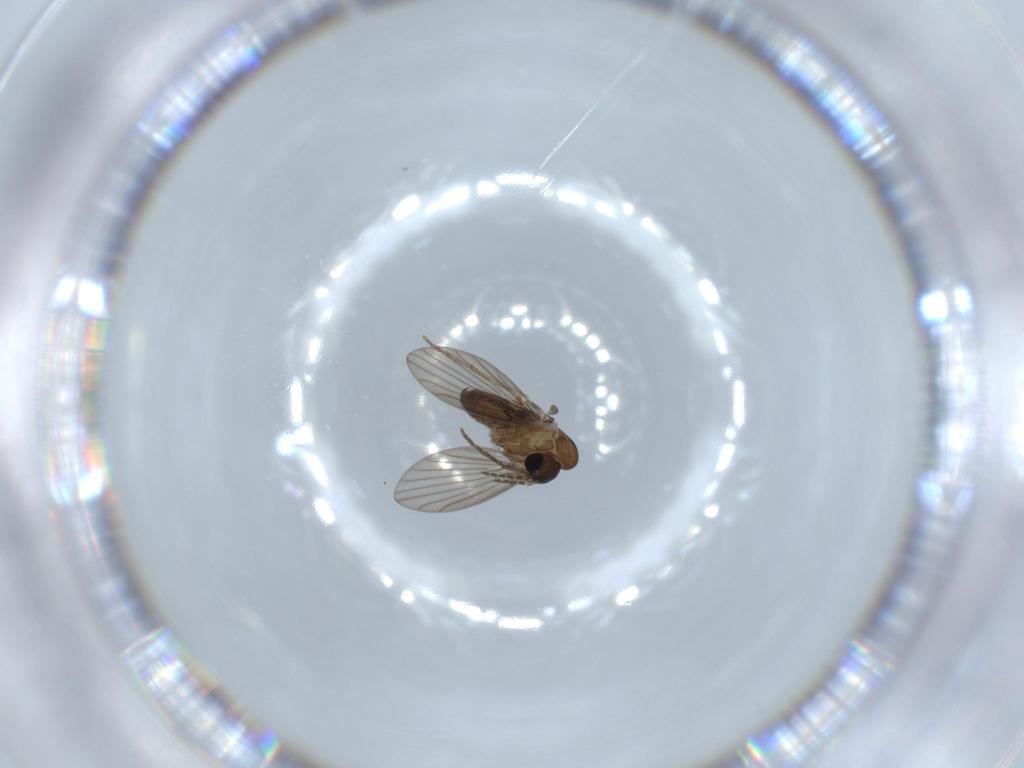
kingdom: Animalia
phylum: Arthropoda
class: Insecta
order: Diptera
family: Psychodidae
